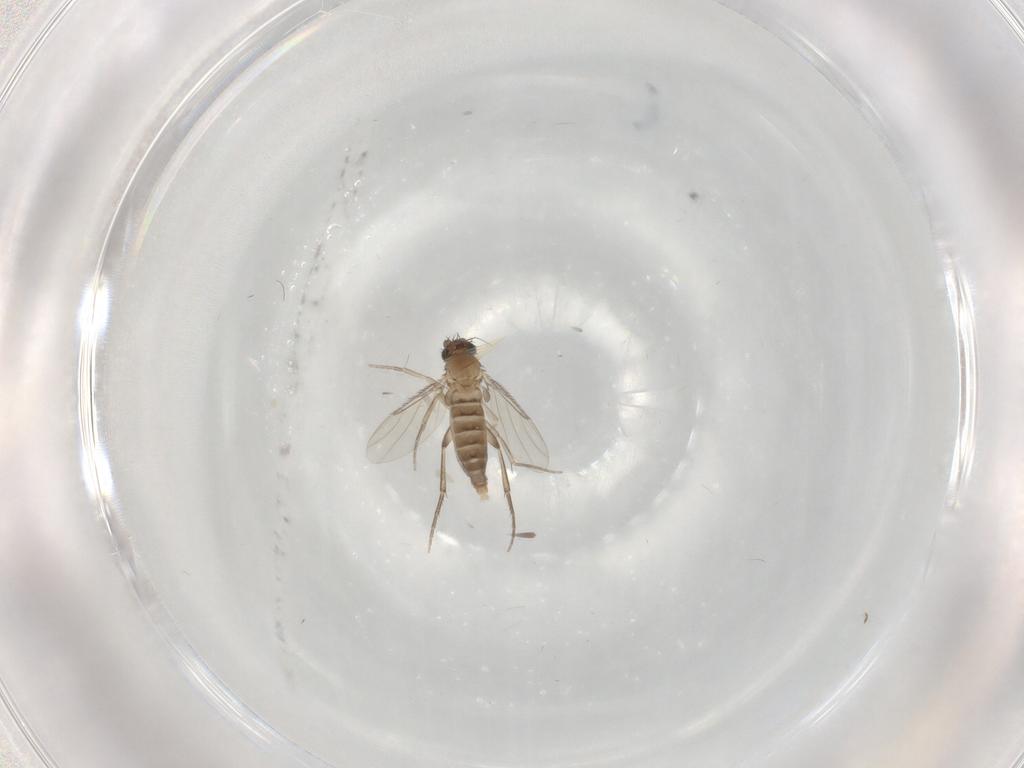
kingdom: Animalia
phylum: Arthropoda
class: Insecta
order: Diptera
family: Phoridae
